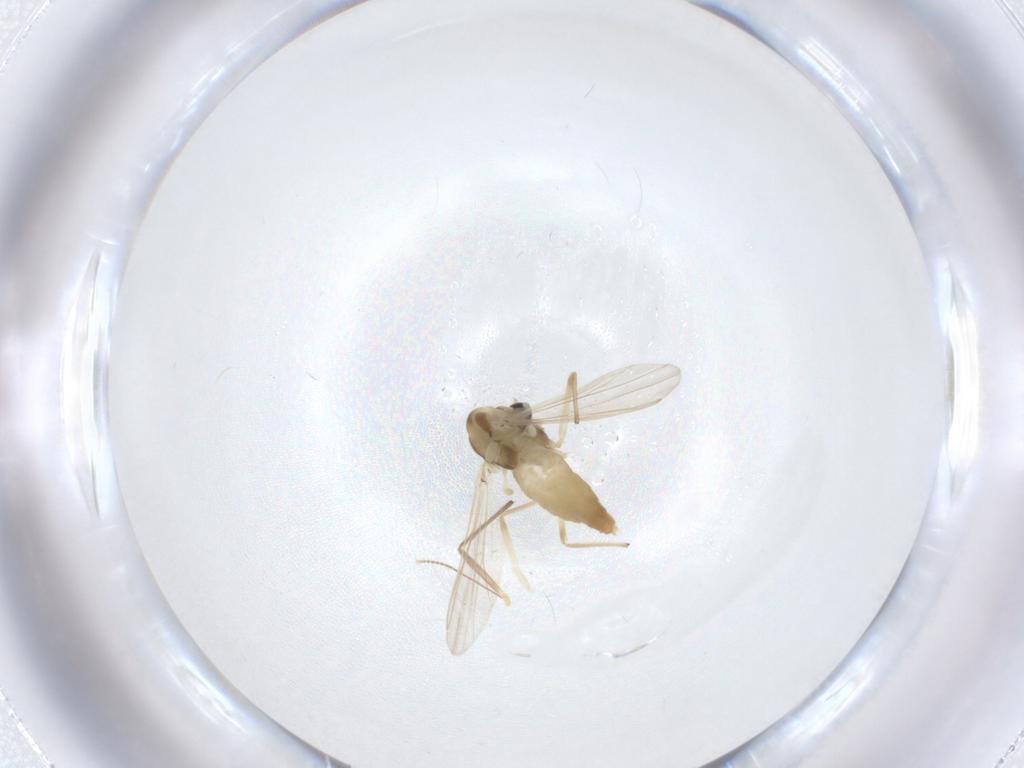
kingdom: Animalia
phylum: Arthropoda
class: Insecta
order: Diptera
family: Chironomidae
